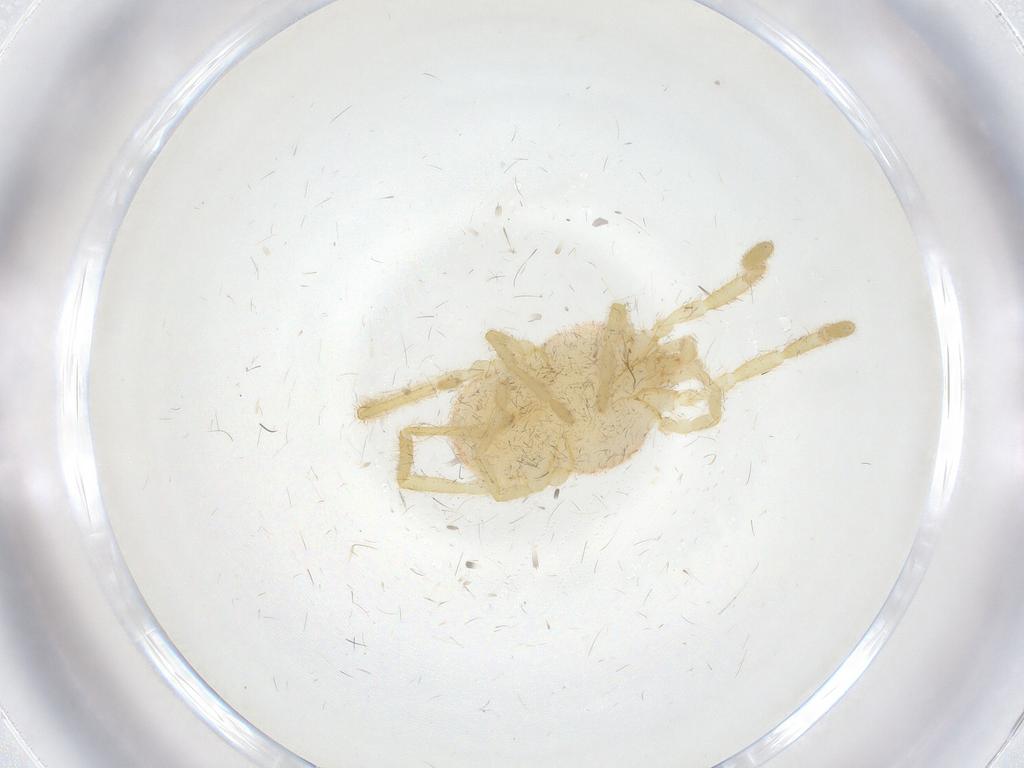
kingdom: Animalia
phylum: Arthropoda
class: Arachnida
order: Trombidiformes
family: Erythraeidae
